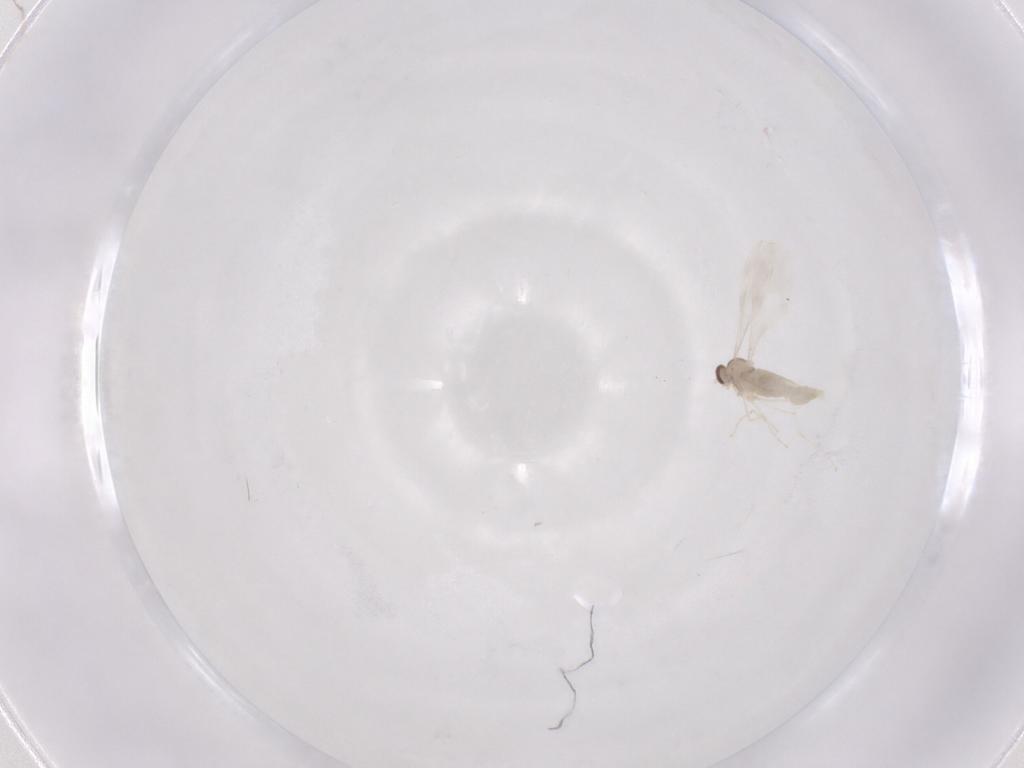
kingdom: Animalia
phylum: Arthropoda
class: Insecta
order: Diptera
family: Cecidomyiidae
